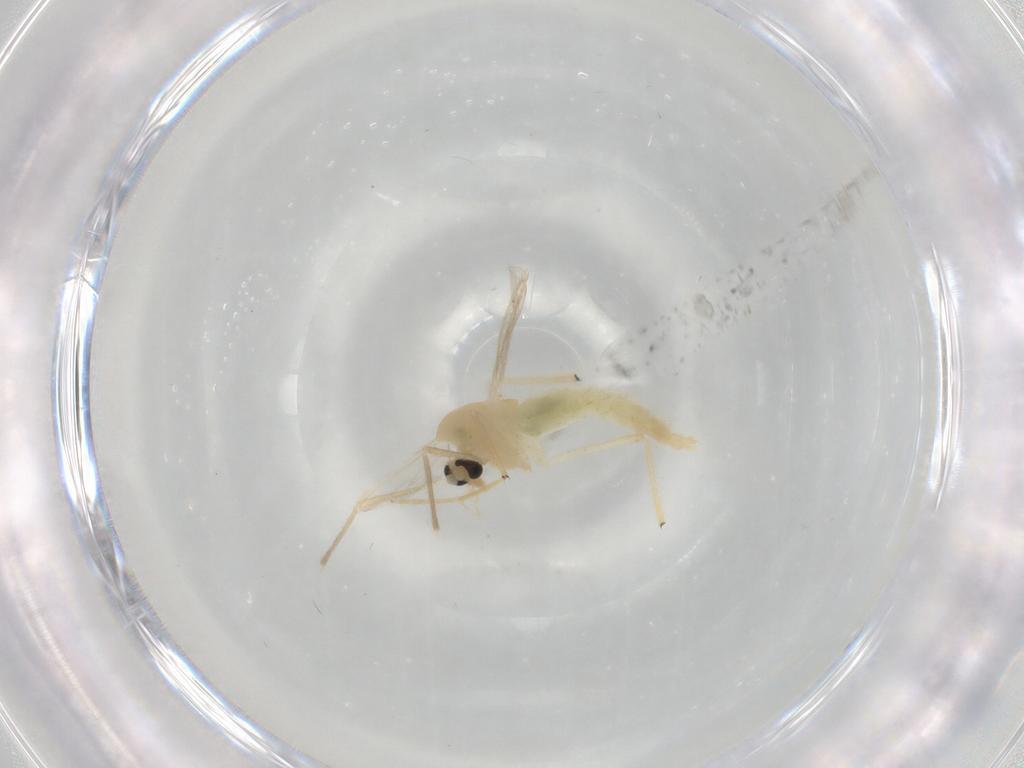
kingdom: Animalia
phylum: Arthropoda
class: Insecta
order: Diptera
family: Chironomidae
